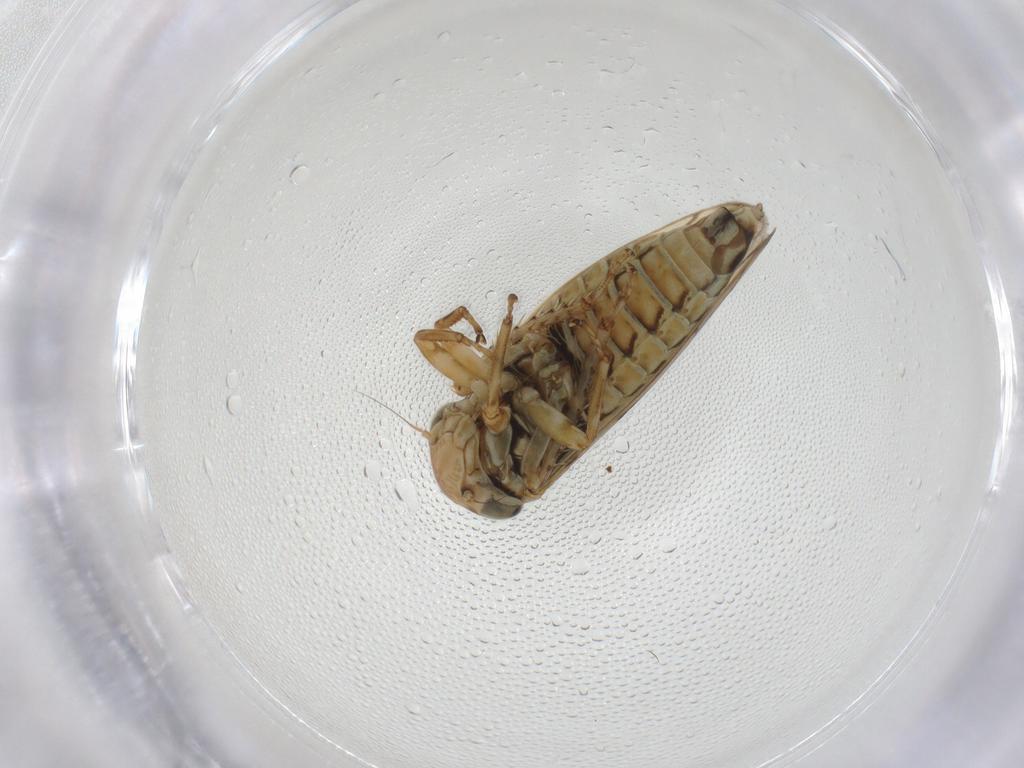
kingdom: Animalia
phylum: Arthropoda
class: Insecta
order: Hemiptera
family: Cicadellidae
